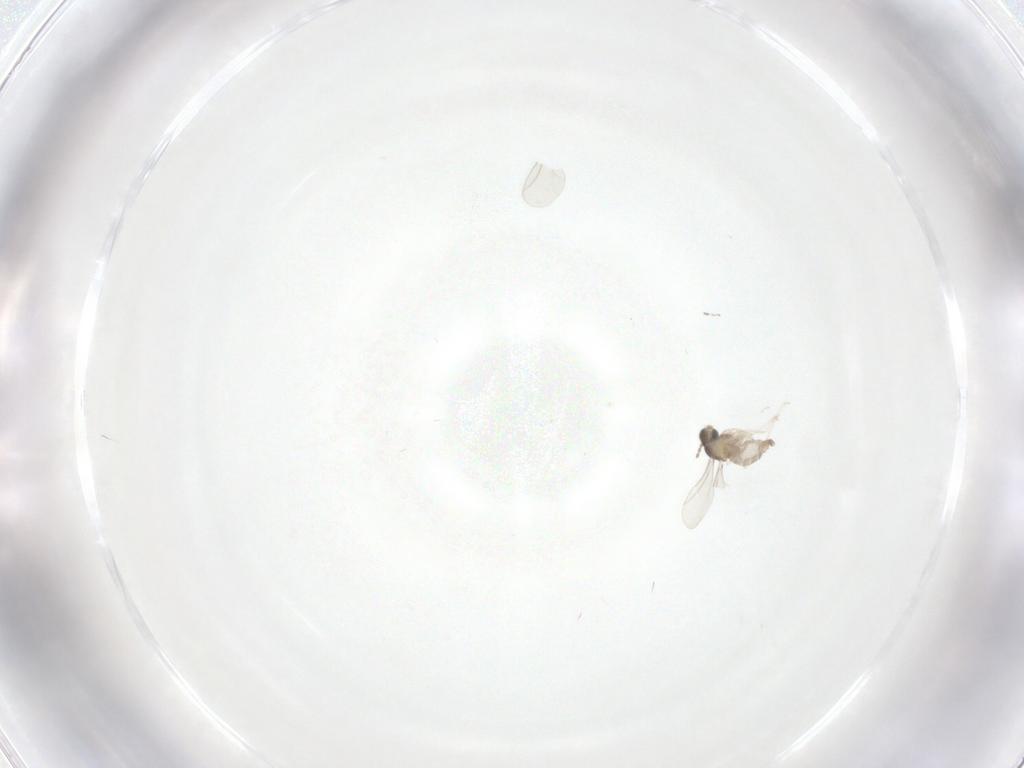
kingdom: Animalia
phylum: Arthropoda
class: Insecta
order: Diptera
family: Cecidomyiidae
